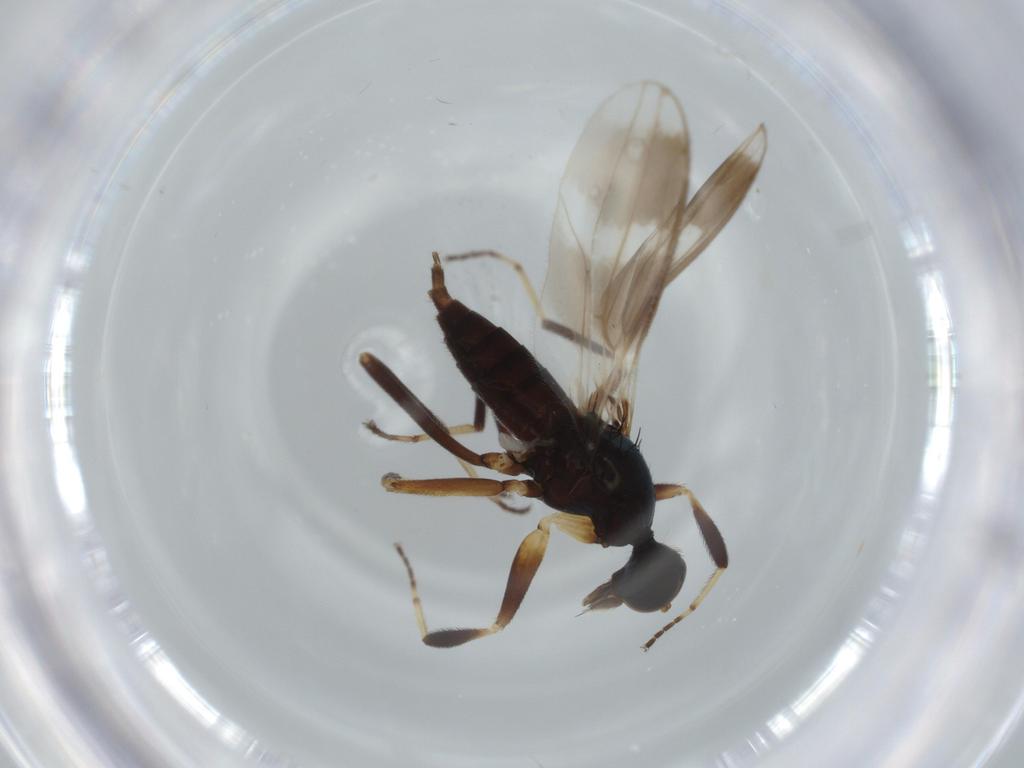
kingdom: Animalia
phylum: Arthropoda
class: Insecta
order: Diptera
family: Hybotidae
